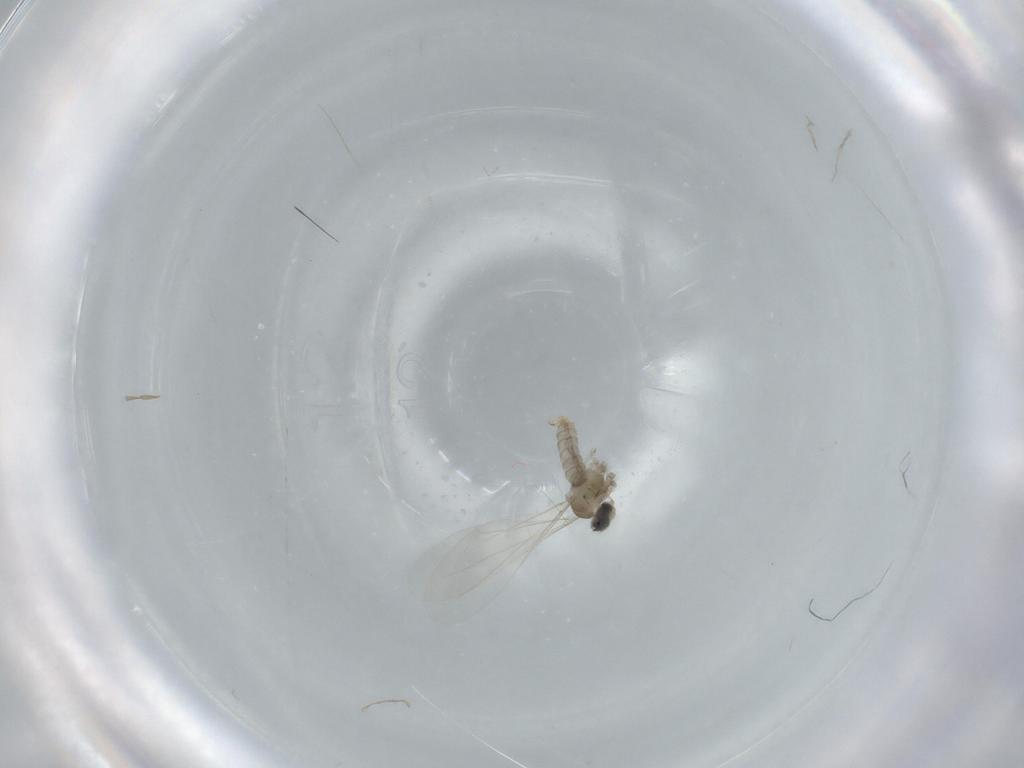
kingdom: Animalia
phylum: Arthropoda
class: Insecta
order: Diptera
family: Cecidomyiidae
